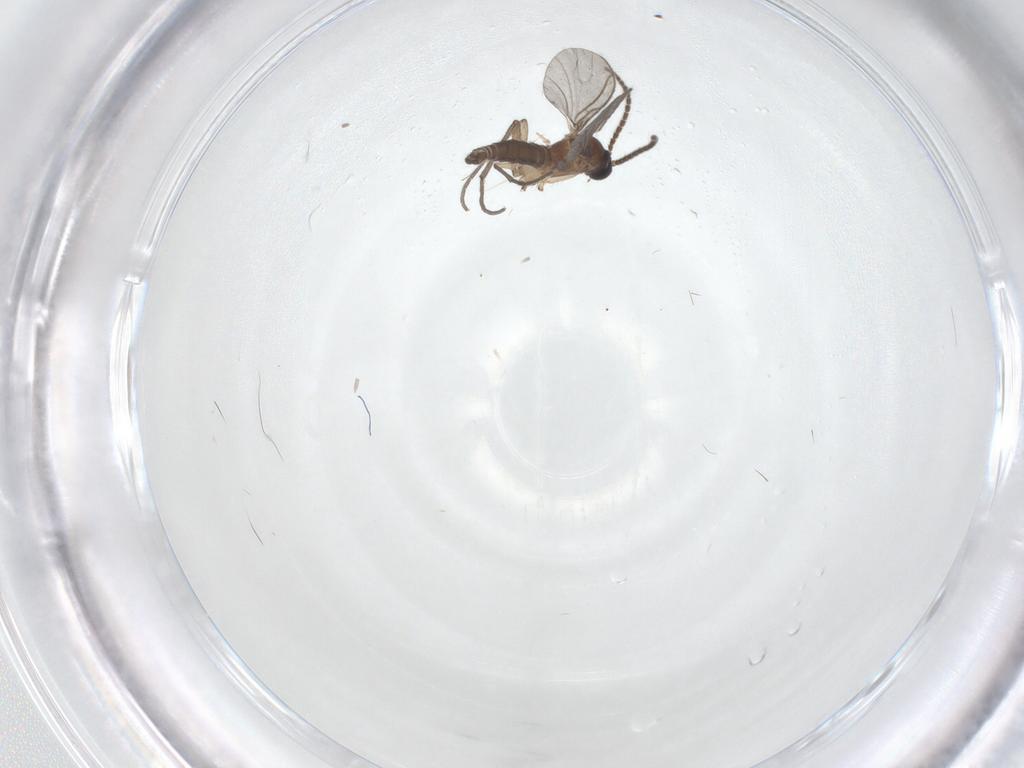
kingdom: Animalia
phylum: Arthropoda
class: Insecta
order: Diptera
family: Sciaridae
